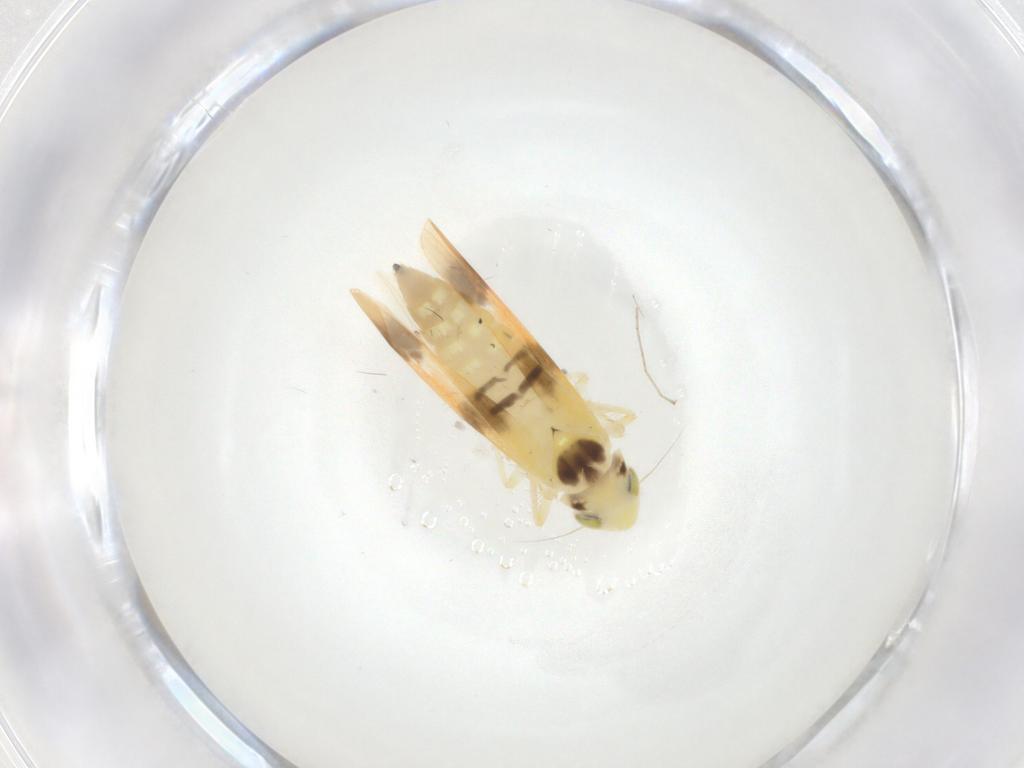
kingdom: Animalia
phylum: Arthropoda
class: Insecta
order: Hemiptera
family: Cicadellidae
